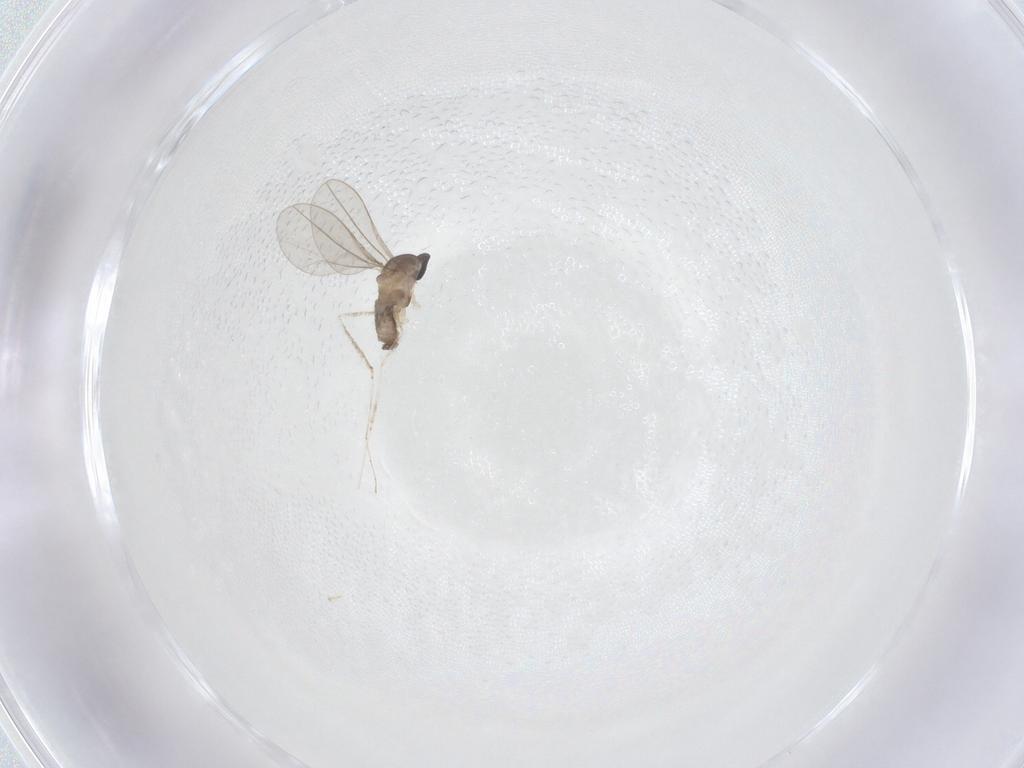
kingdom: Animalia
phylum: Arthropoda
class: Insecta
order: Diptera
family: Cecidomyiidae
